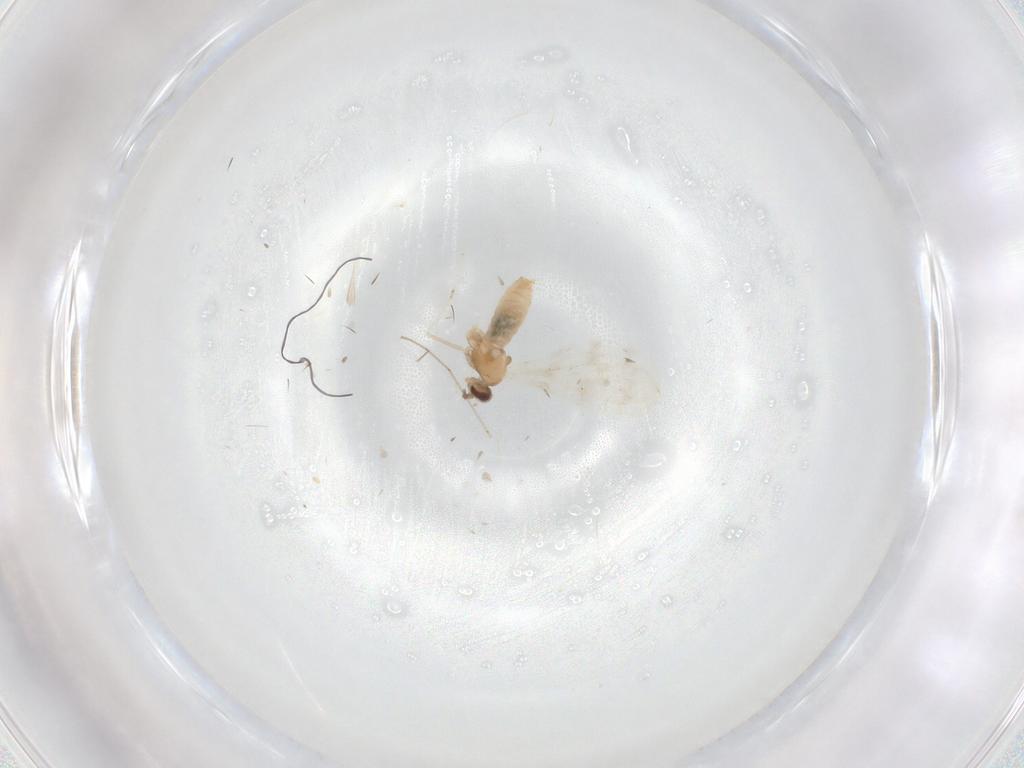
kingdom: Animalia
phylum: Arthropoda
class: Insecta
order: Diptera
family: Cecidomyiidae
